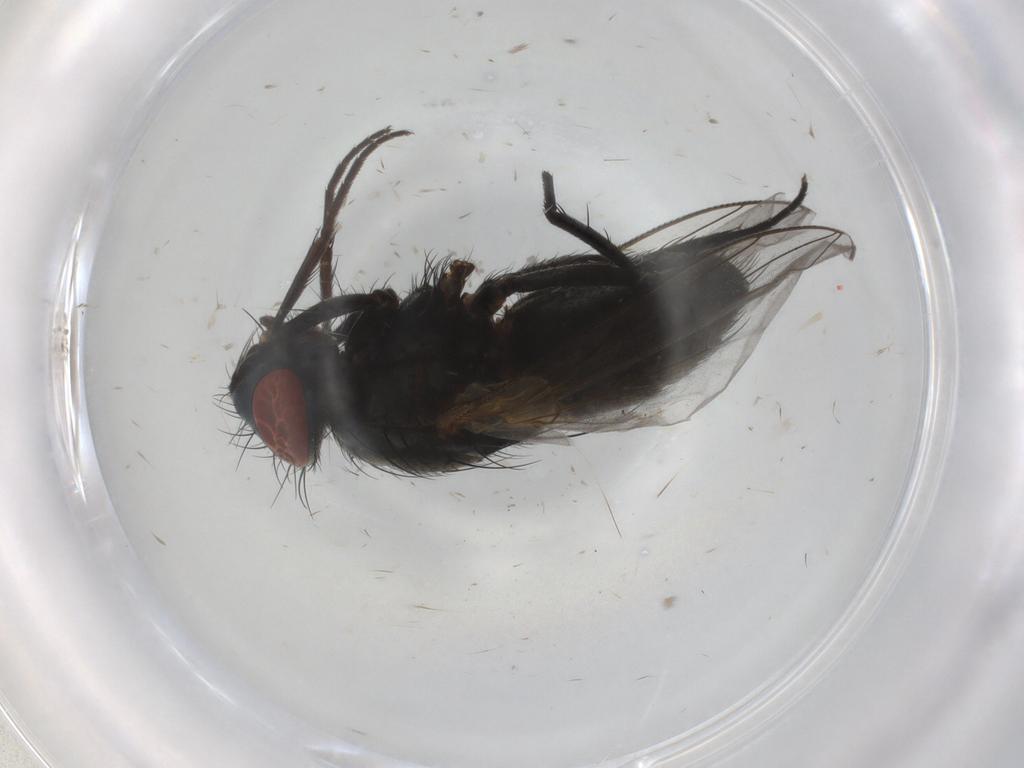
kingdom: Animalia
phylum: Arthropoda
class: Insecta
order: Diptera
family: Sarcophagidae
